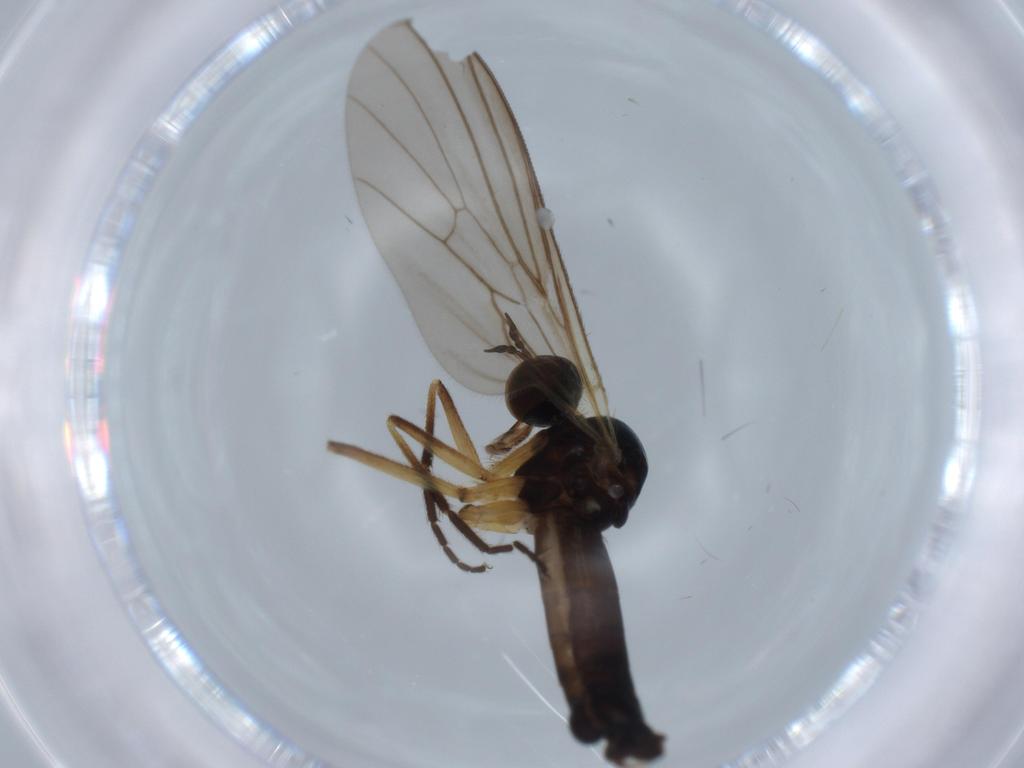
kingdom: Animalia
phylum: Arthropoda
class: Insecta
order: Diptera
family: Empididae
